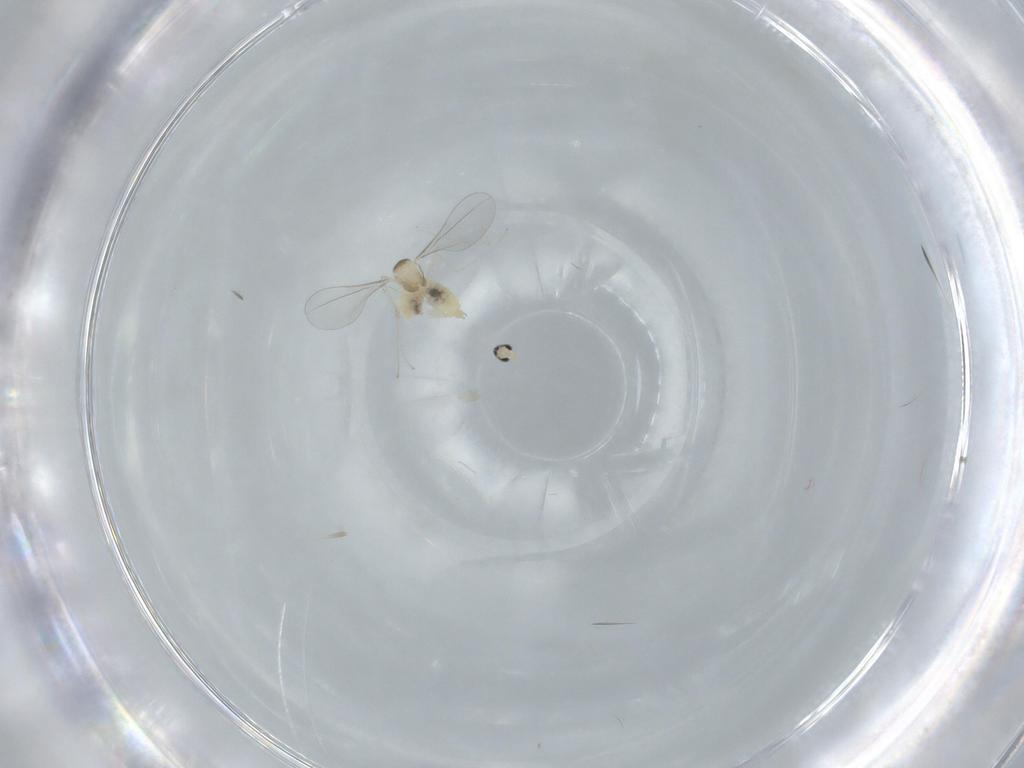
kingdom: Animalia
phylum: Arthropoda
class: Insecta
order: Diptera
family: Cecidomyiidae
